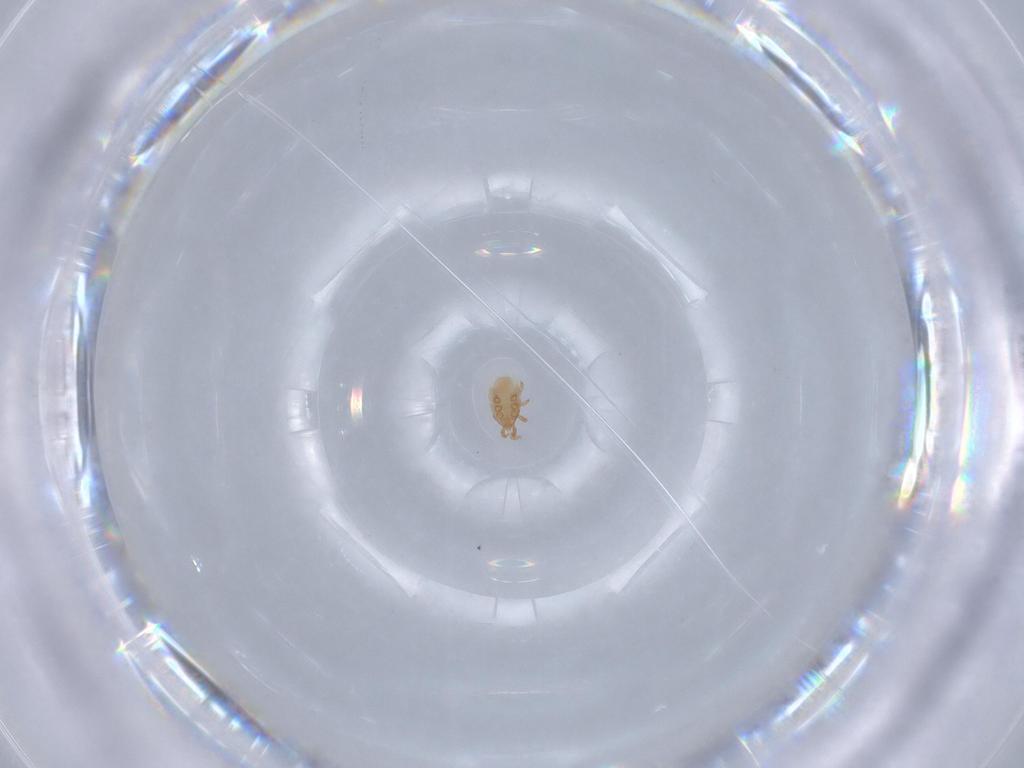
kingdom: Animalia
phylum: Arthropoda
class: Arachnida
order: Mesostigmata
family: Dinychidae
